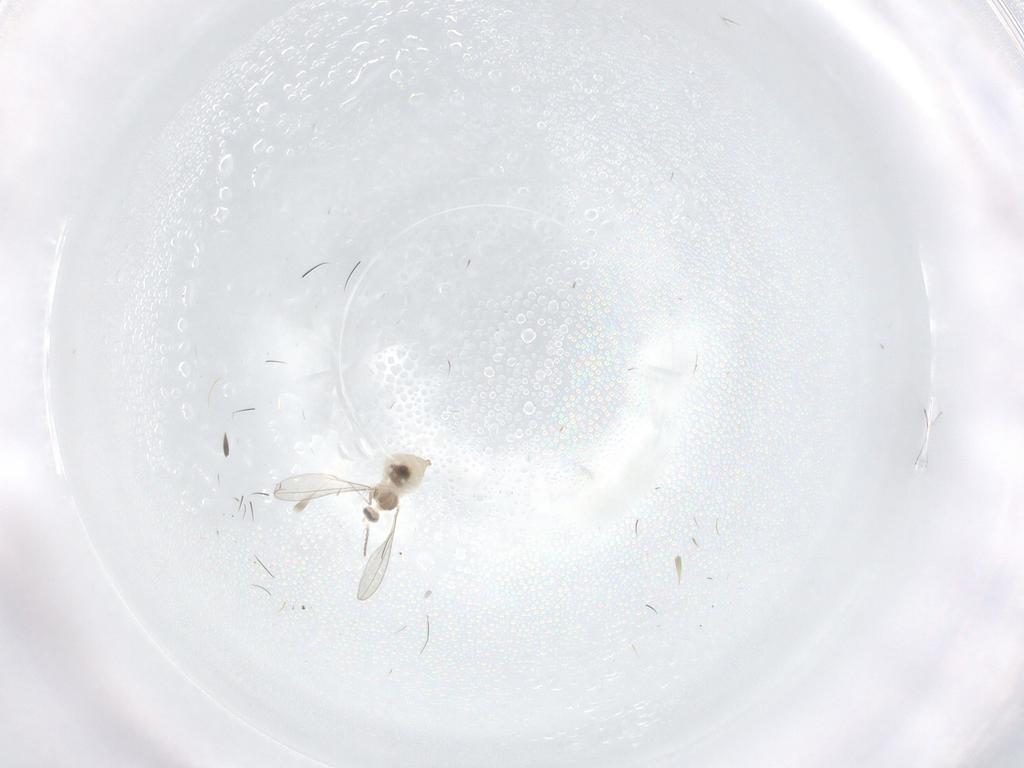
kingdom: Animalia
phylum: Arthropoda
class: Insecta
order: Diptera
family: Cecidomyiidae
